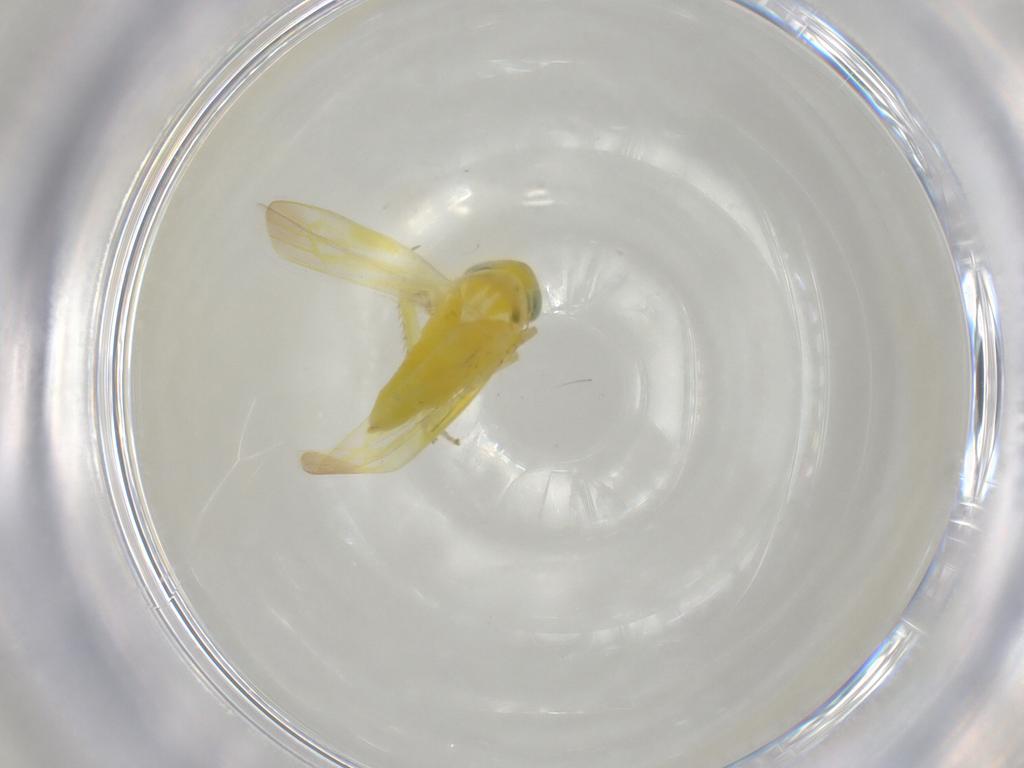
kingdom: Animalia
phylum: Arthropoda
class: Insecta
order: Hemiptera
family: Cicadellidae
